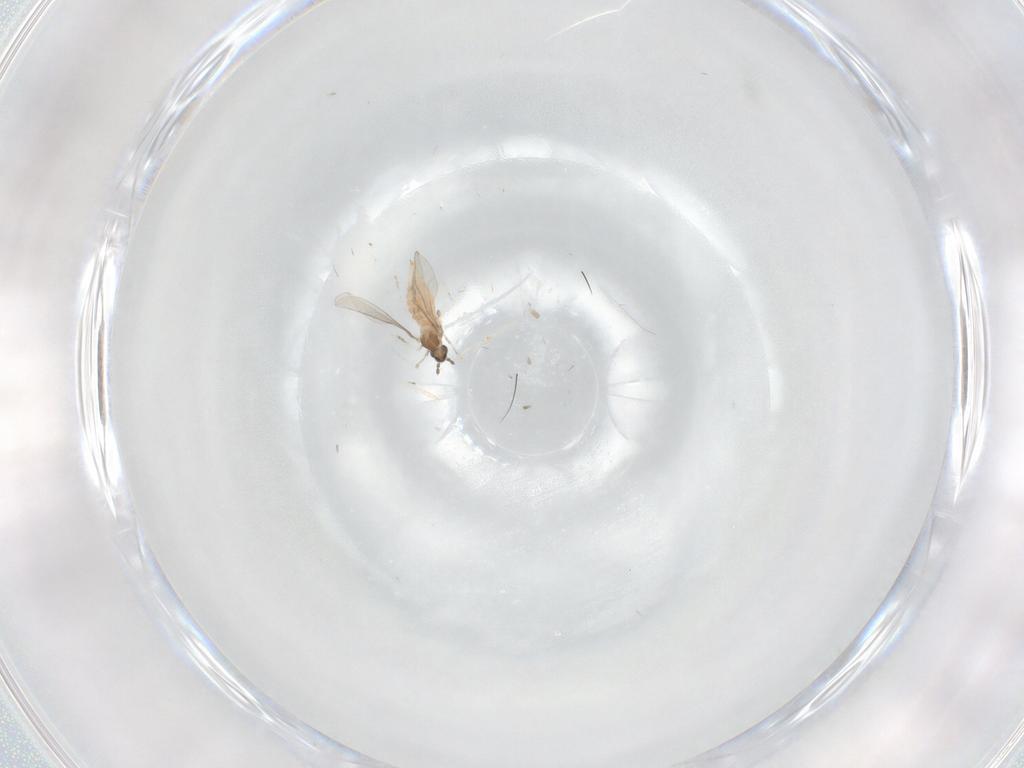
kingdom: Animalia
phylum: Arthropoda
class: Insecta
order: Diptera
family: Cecidomyiidae
